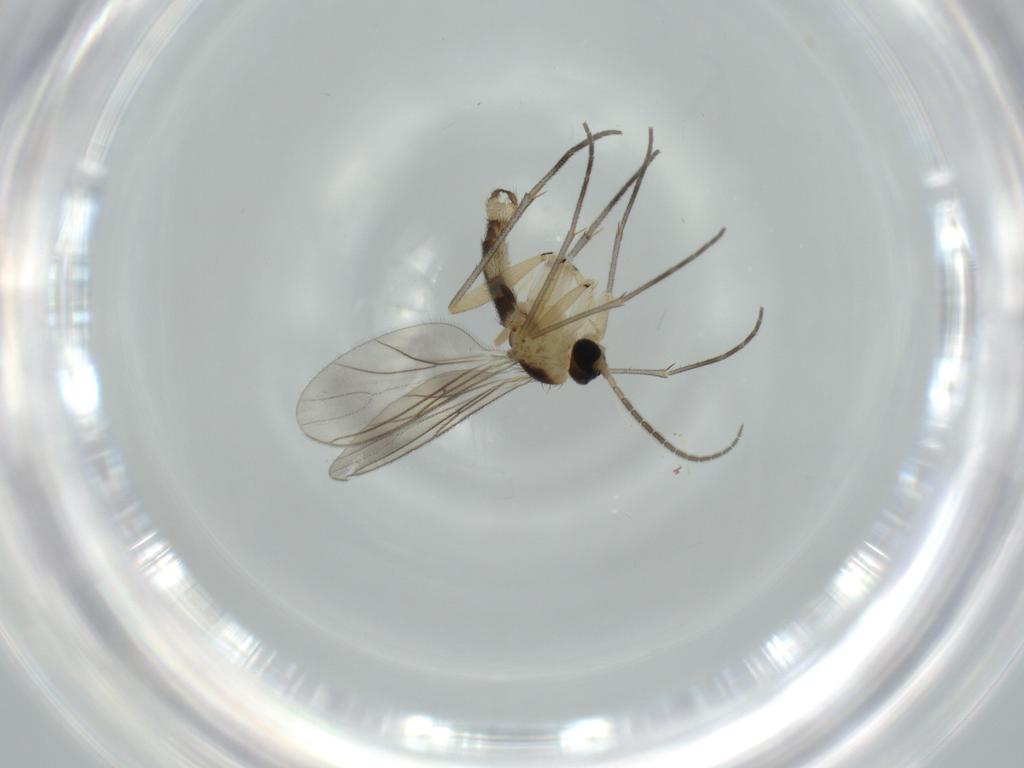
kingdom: Animalia
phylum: Arthropoda
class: Insecta
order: Diptera
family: Sciaridae
